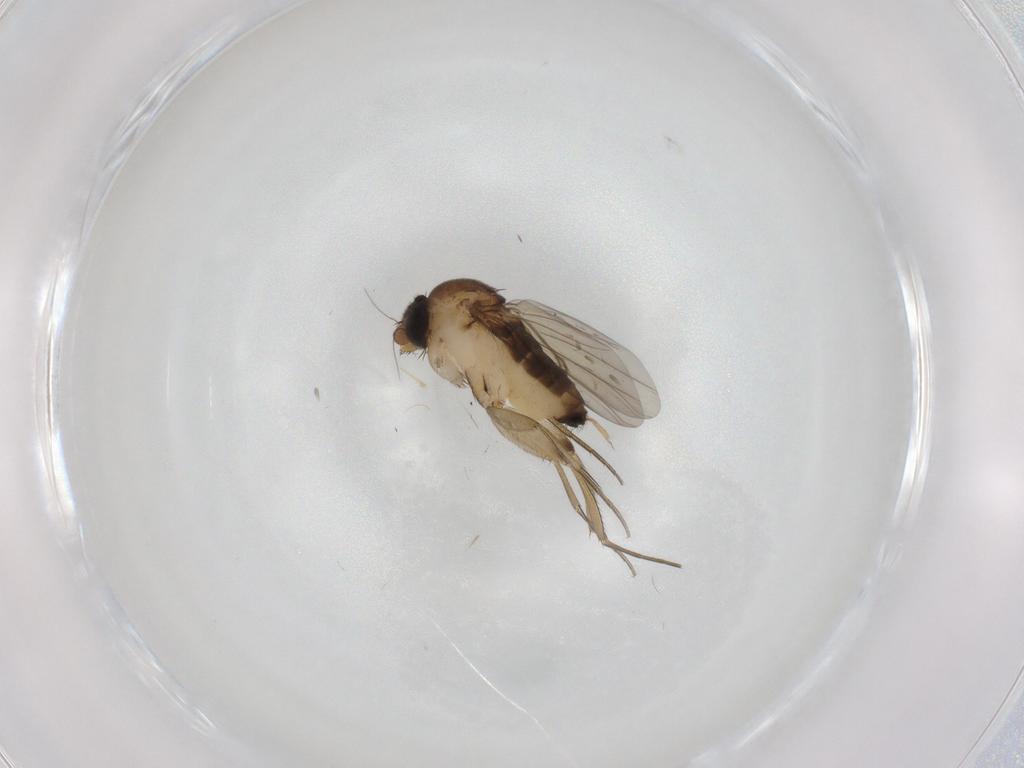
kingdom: Animalia
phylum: Arthropoda
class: Insecta
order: Diptera
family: Phoridae
